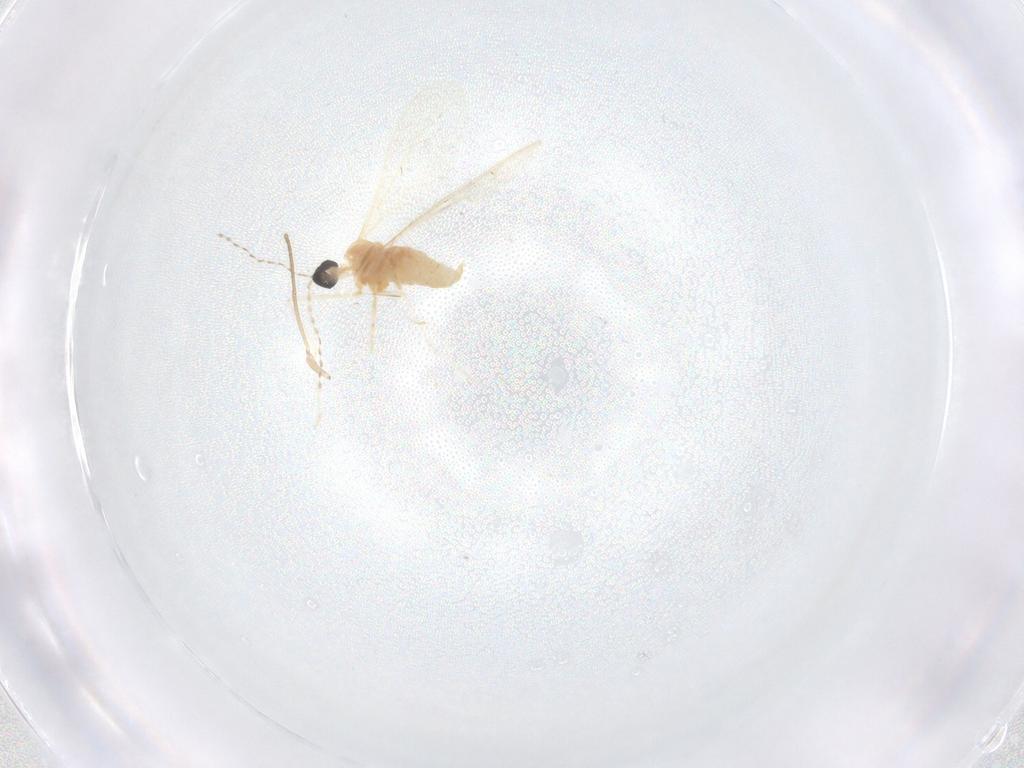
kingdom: Animalia
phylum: Arthropoda
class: Insecta
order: Diptera
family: Cecidomyiidae
